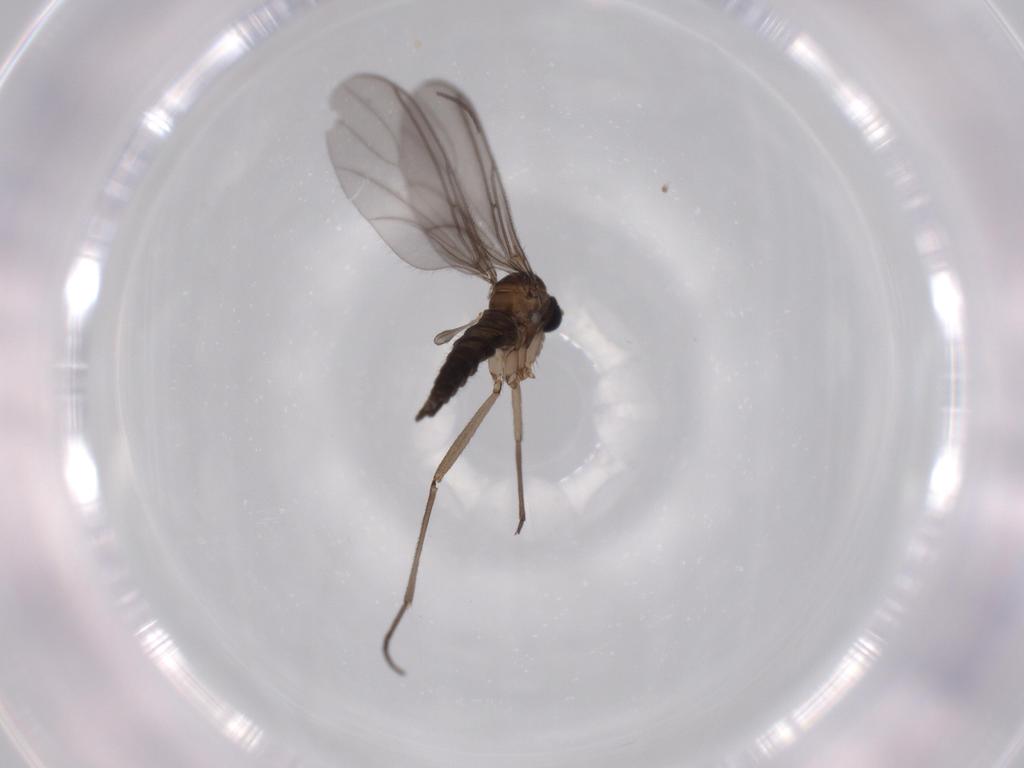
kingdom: Animalia
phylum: Arthropoda
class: Insecta
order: Diptera
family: Sciaridae
